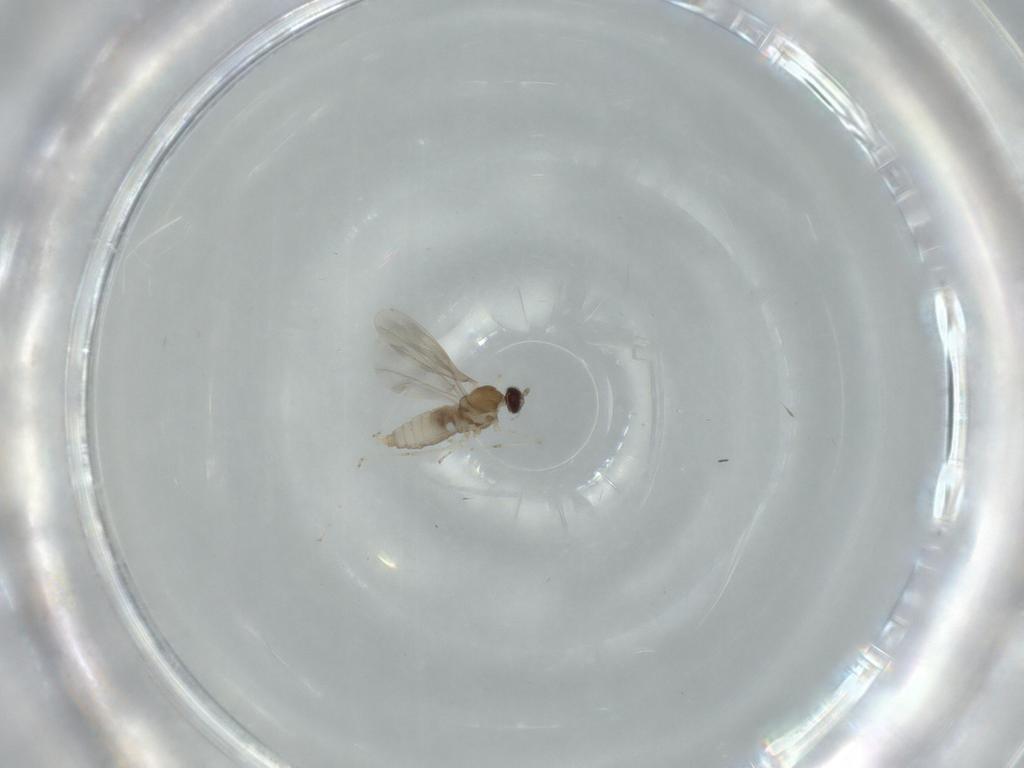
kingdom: Animalia
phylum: Arthropoda
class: Insecta
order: Diptera
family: Cecidomyiidae
